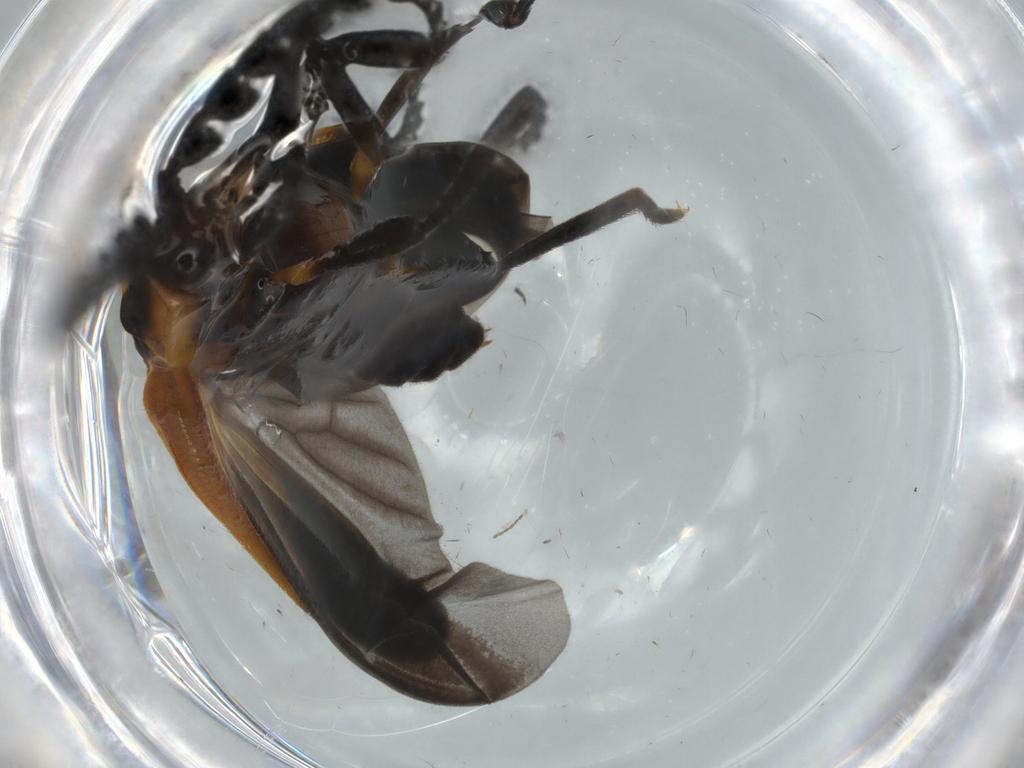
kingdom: Animalia
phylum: Arthropoda
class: Insecta
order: Coleoptera
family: Lycidae
